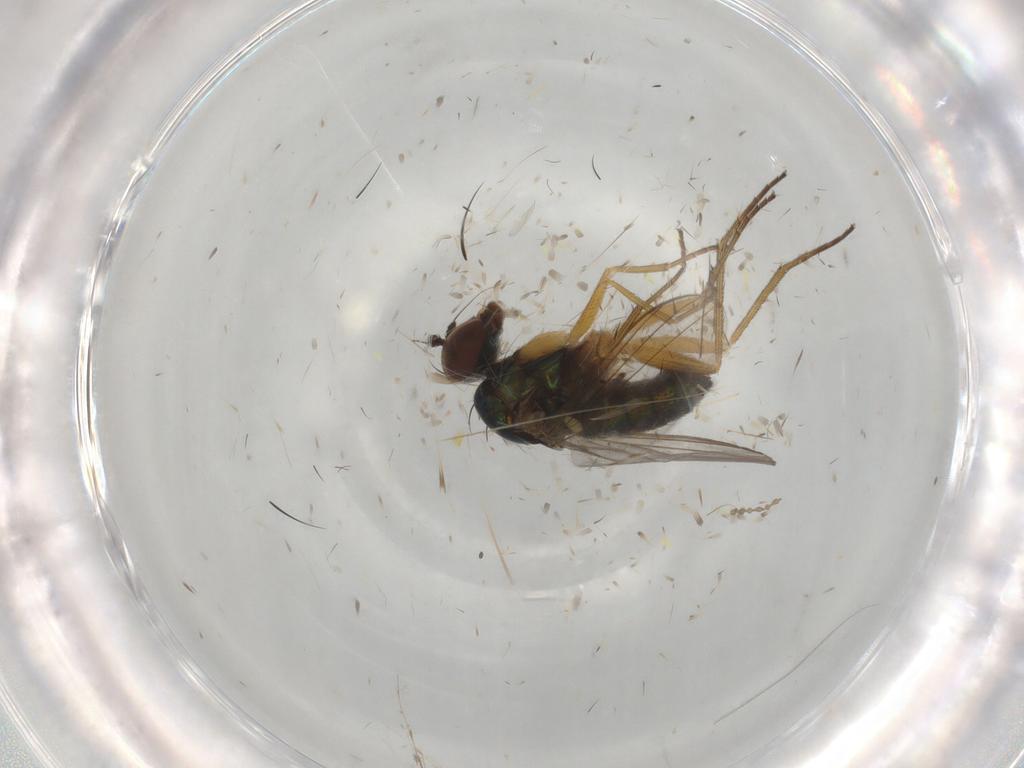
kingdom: Animalia
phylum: Arthropoda
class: Insecta
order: Diptera
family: Dolichopodidae
